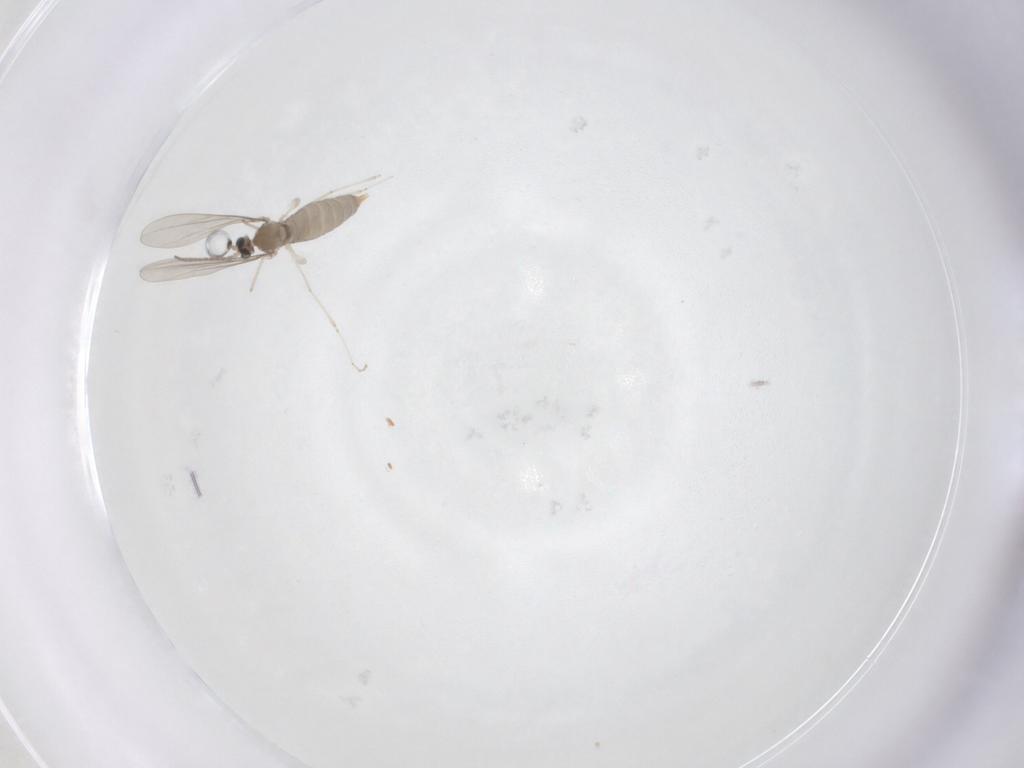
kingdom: Animalia
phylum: Arthropoda
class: Insecta
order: Diptera
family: Cecidomyiidae
